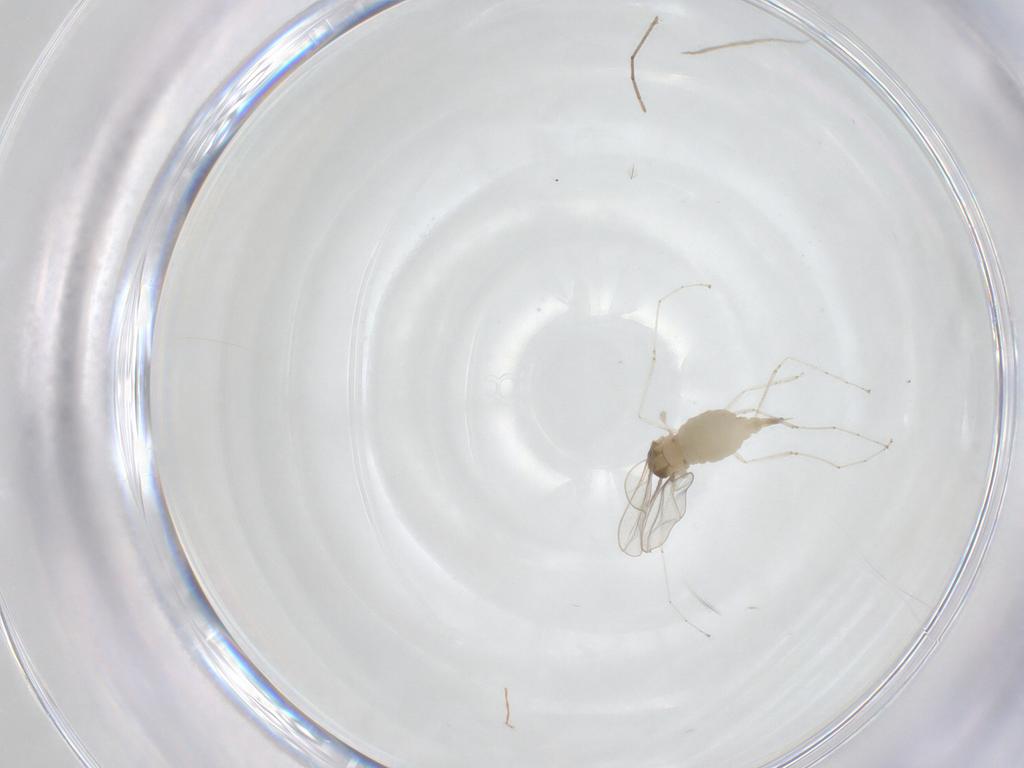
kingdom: Animalia
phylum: Arthropoda
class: Insecta
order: Diptera
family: Cecidomyiidae
